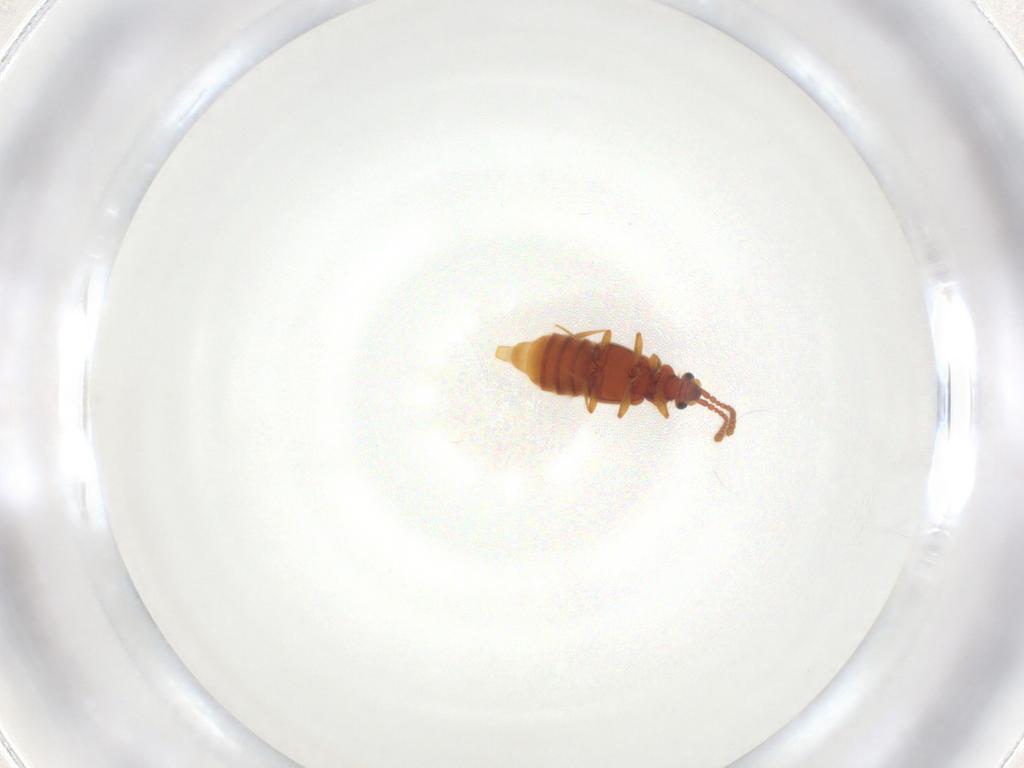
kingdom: Animalia
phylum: Arthropoda
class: Insecta
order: Coleoptera
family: Staphylinidae
